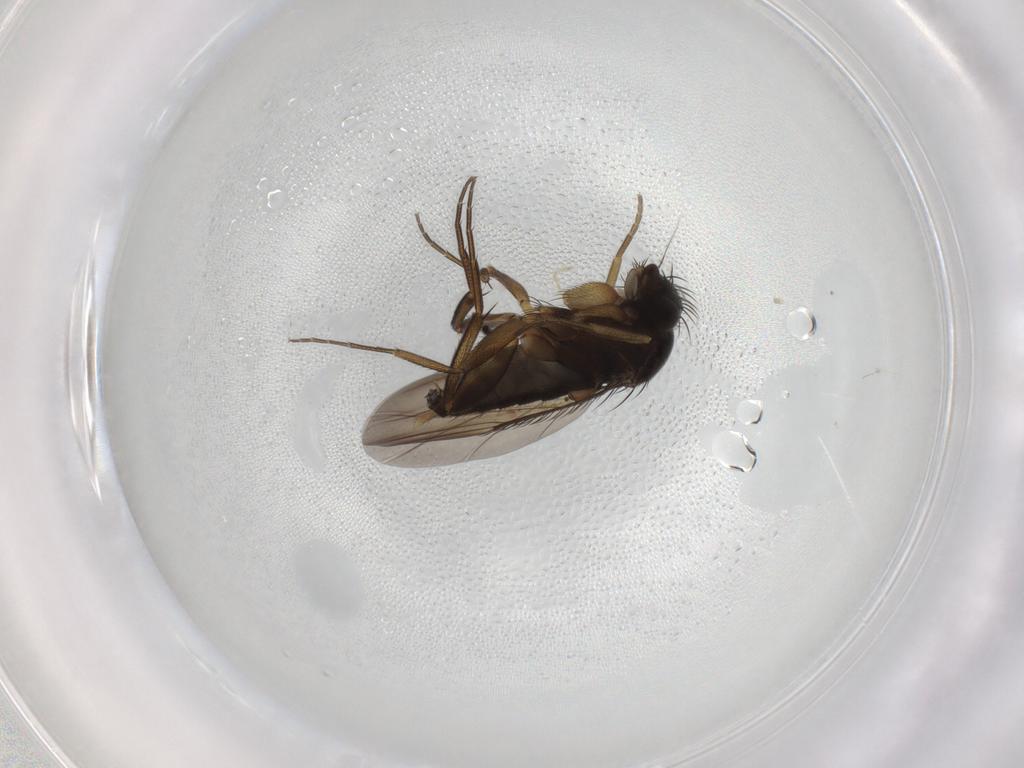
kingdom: Animalia
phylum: Arthropoda
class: Insecta
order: Diptera
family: Phoridae
